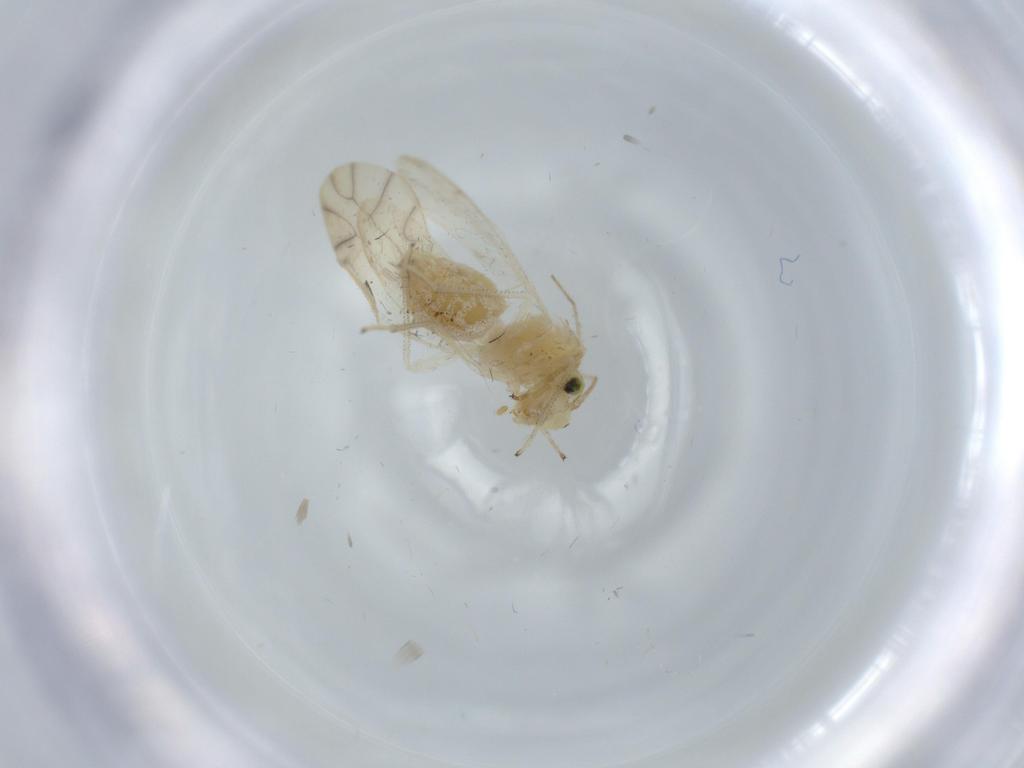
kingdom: Animalia
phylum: Arthropoda
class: Insecta
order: Psocodea
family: Caeciliusidae
